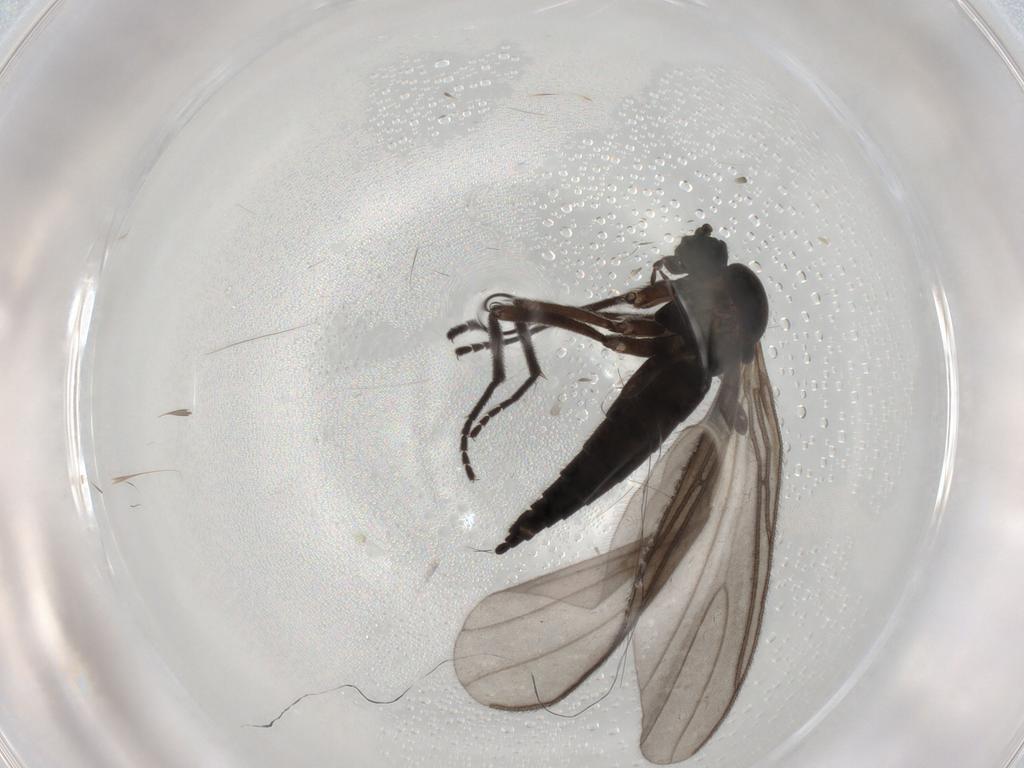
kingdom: Animalia
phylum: Arthropoda
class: Insecta
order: Diptera
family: Sciaridae
